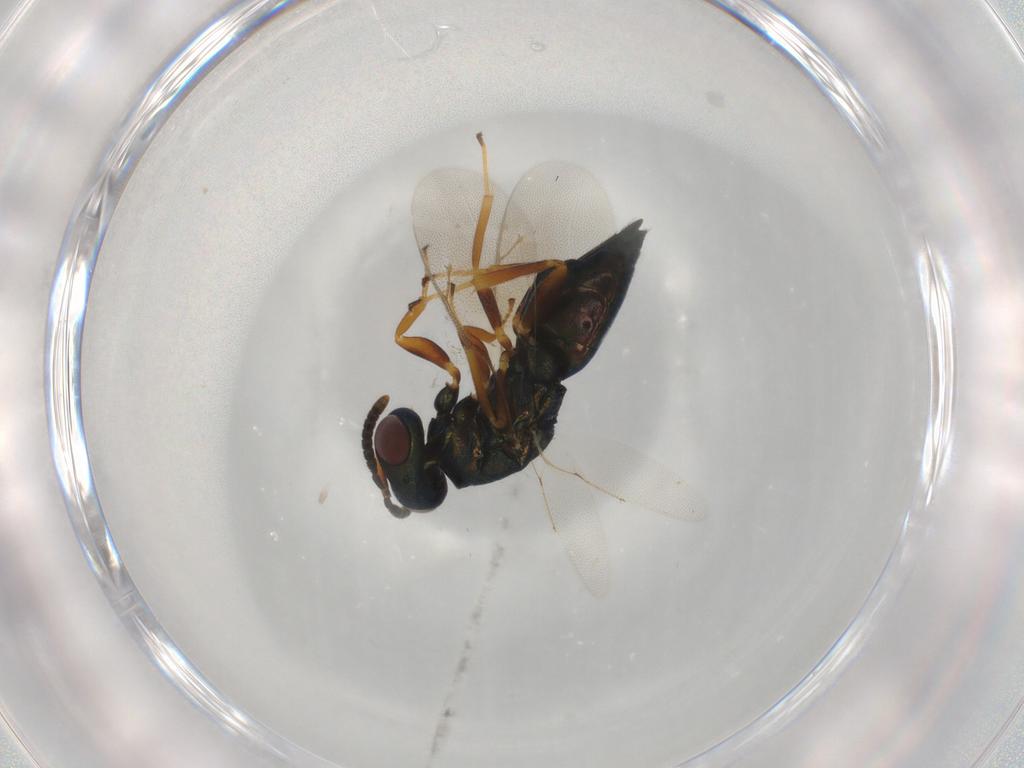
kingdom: Animalia
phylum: Arthropoda
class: Insecta
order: Hymenoptera
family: Pteromalidae
